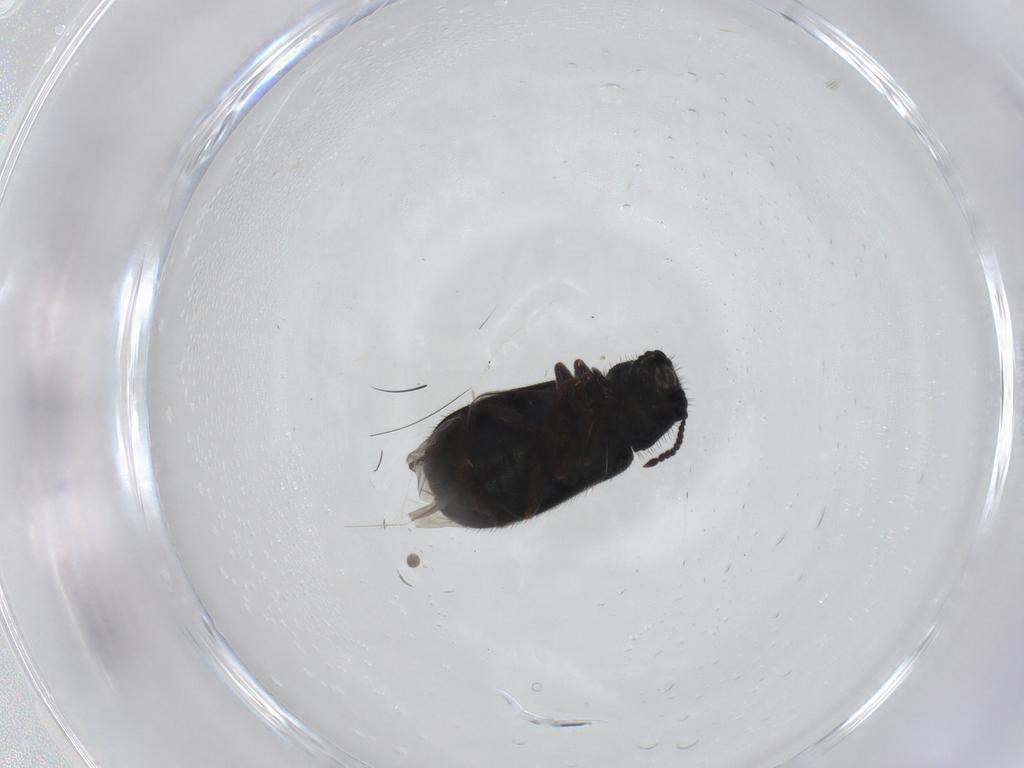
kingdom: Animalia
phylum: Arthropoda
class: Insecta
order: Coleoptera
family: Melyridae
